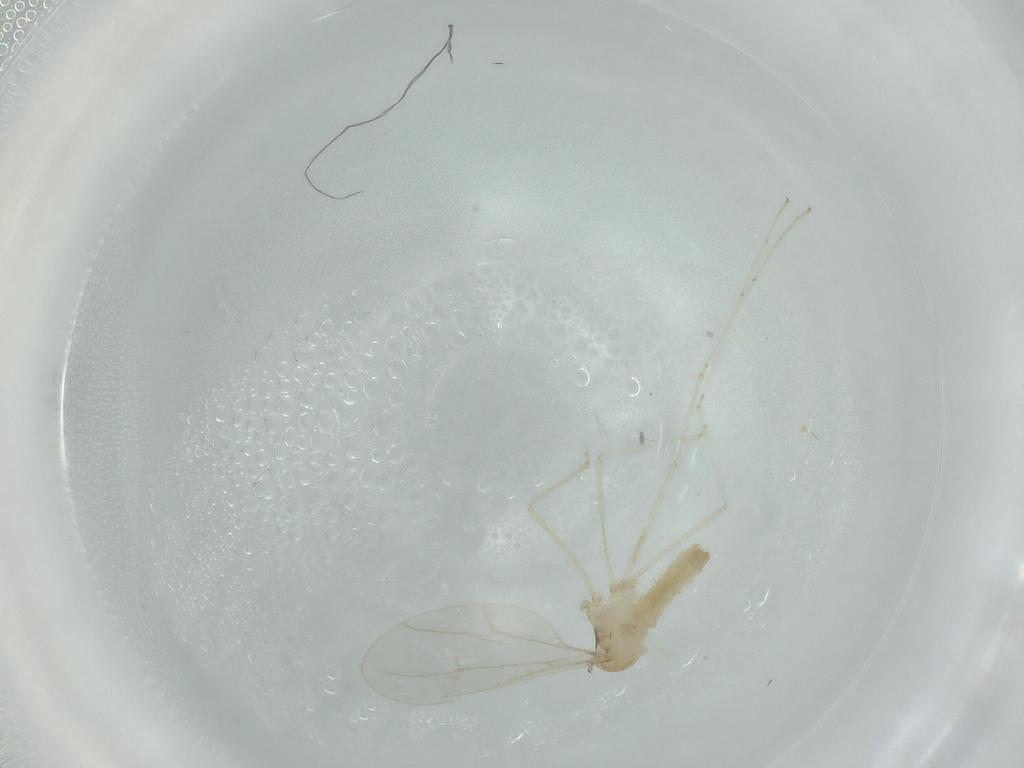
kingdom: Animalia
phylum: Arthropoda
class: Insecta
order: Diptera
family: Cecidomyiidae
